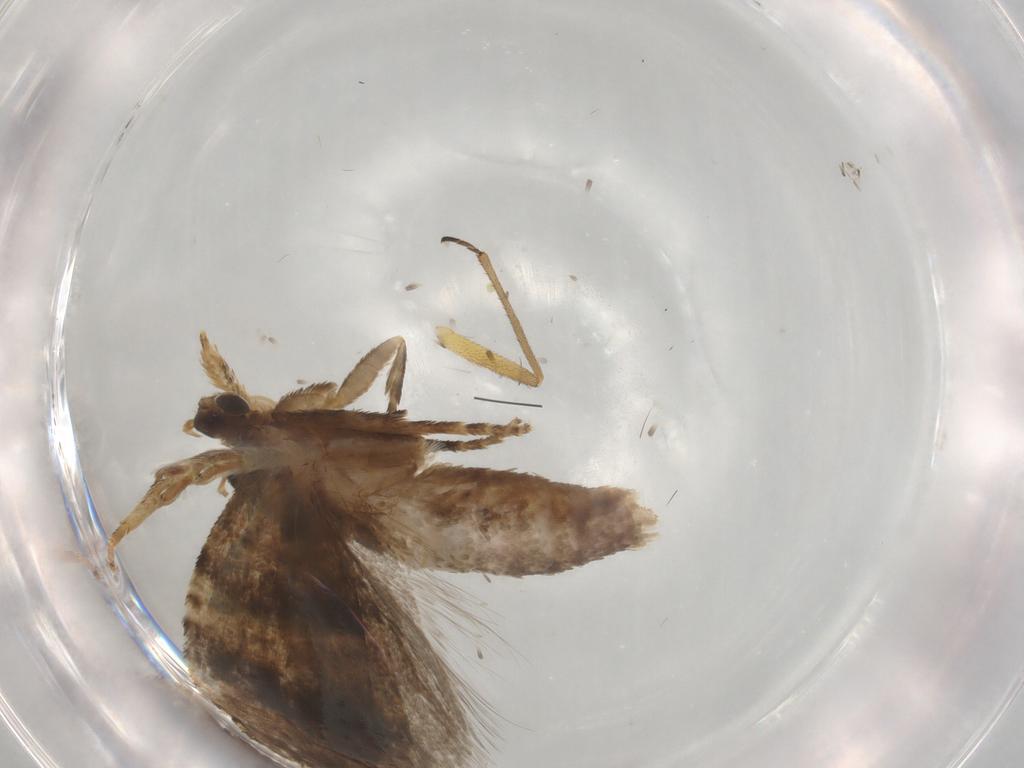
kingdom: Animalia
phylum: Arthropoda
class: Insecta
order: Lepidoptera
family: Tortricidae
